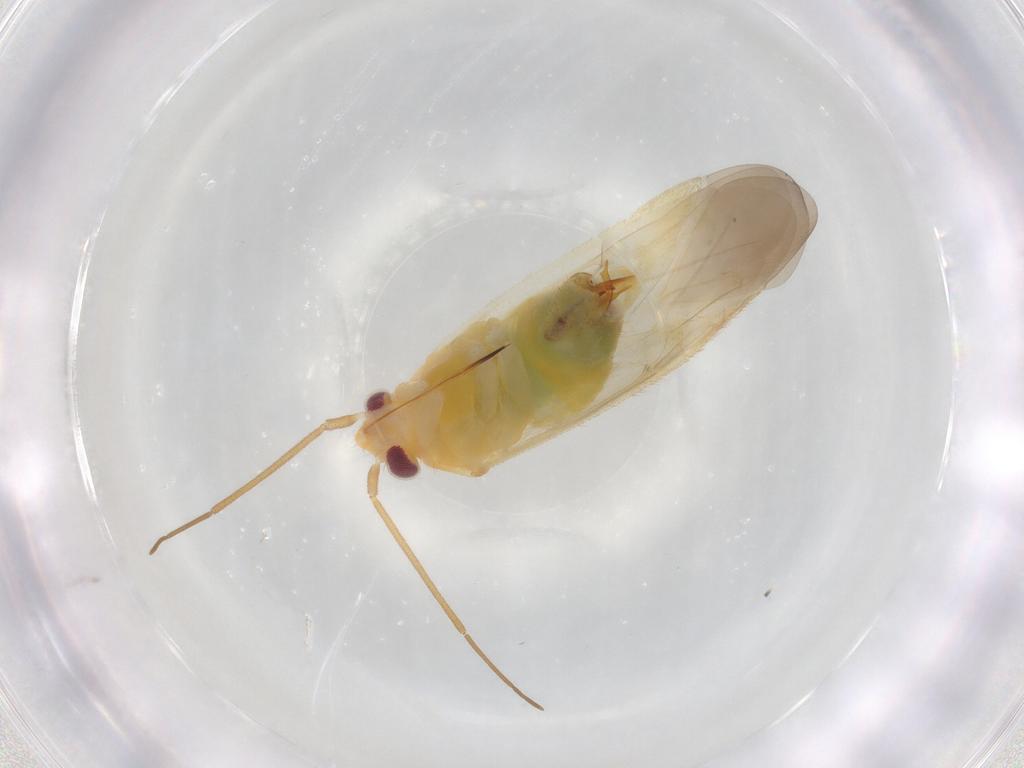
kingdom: Animalia
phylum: Arthropoda
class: Insecta
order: Hemiptera
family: Miridae
